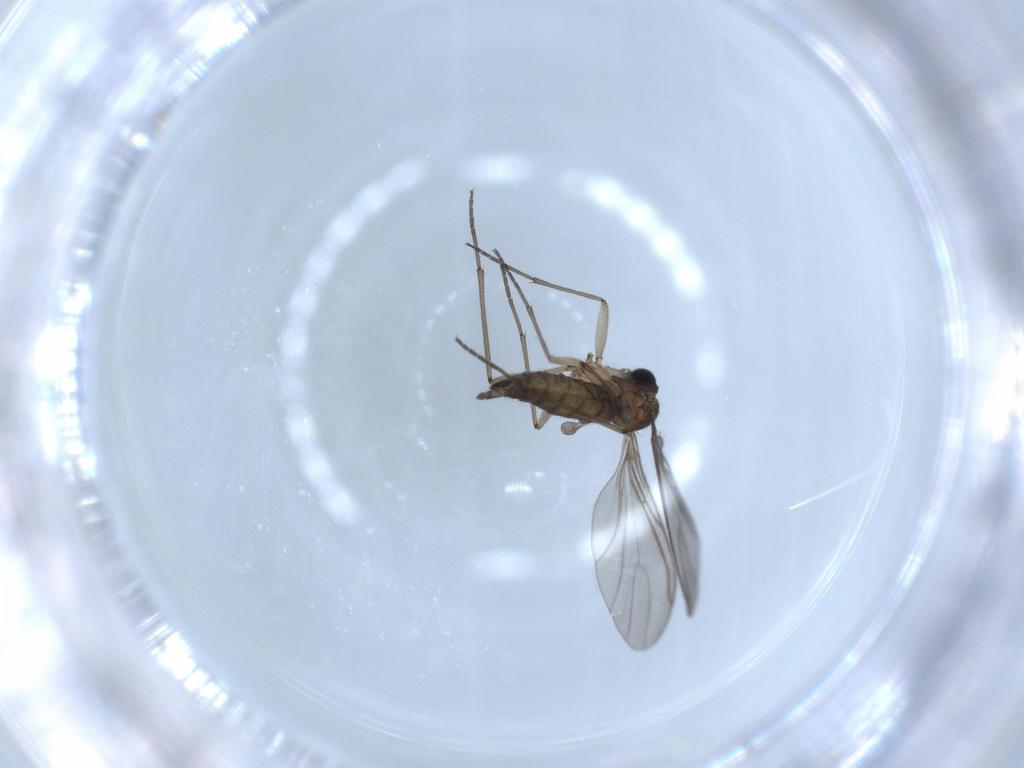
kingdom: Animalia
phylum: Arthropoda
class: Insecta
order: Diptera
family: Sciaridae
